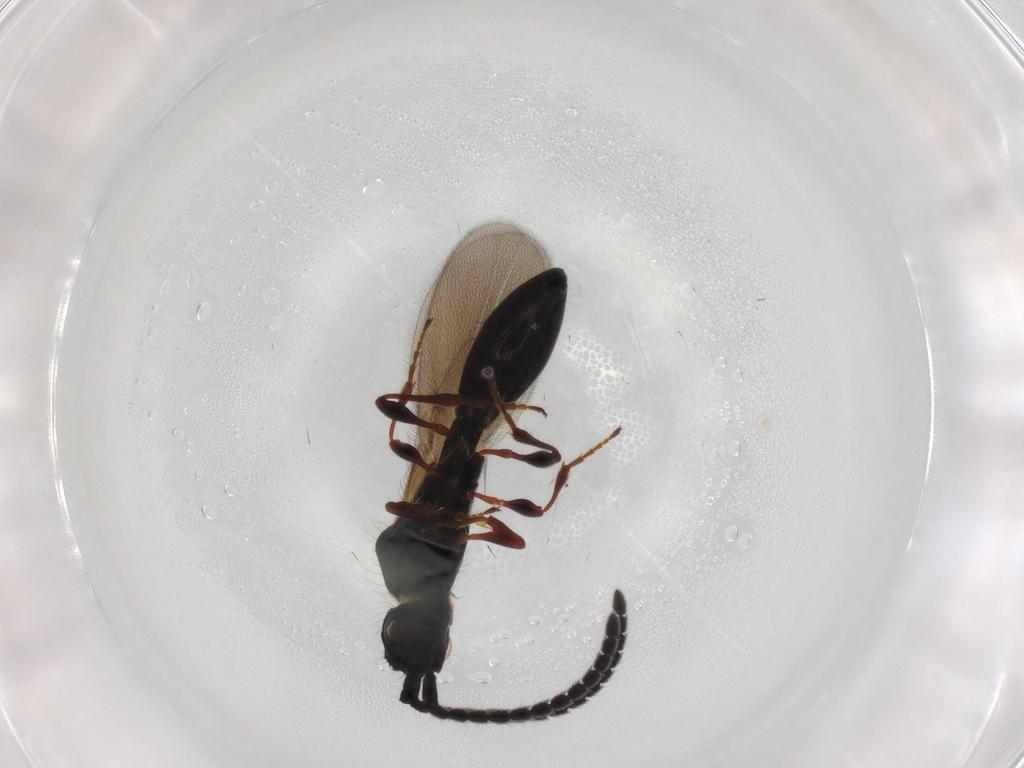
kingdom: Animalia
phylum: Arthropoda
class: Insecta
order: Hymenoptera
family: Diapriidae
